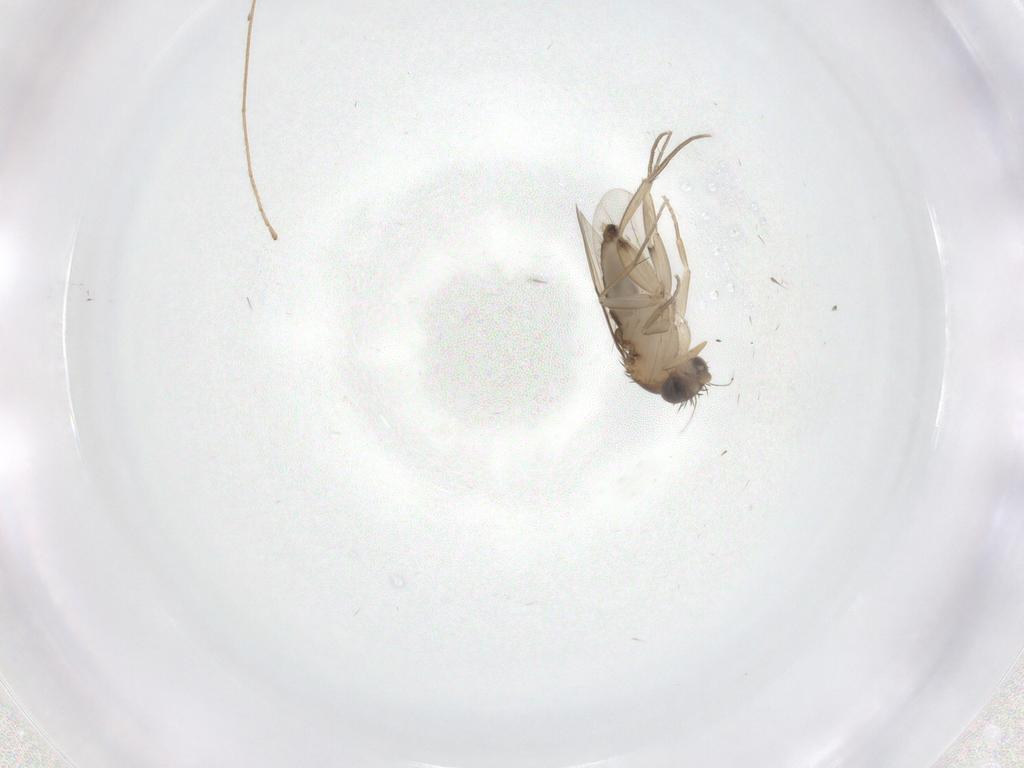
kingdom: Animalia
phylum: Arthropoda
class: Insecta
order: Diptera
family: Phoridae
